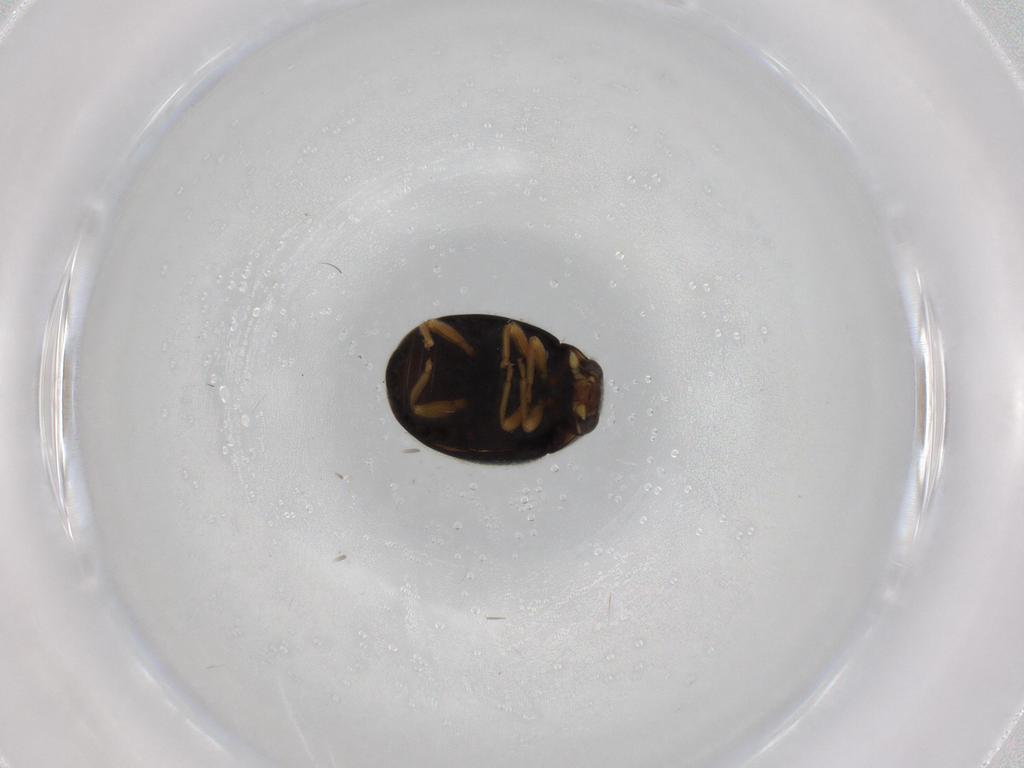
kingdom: Animalia
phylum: Arthropoda
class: Insecta
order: Coleoptera
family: Coccinellidae
